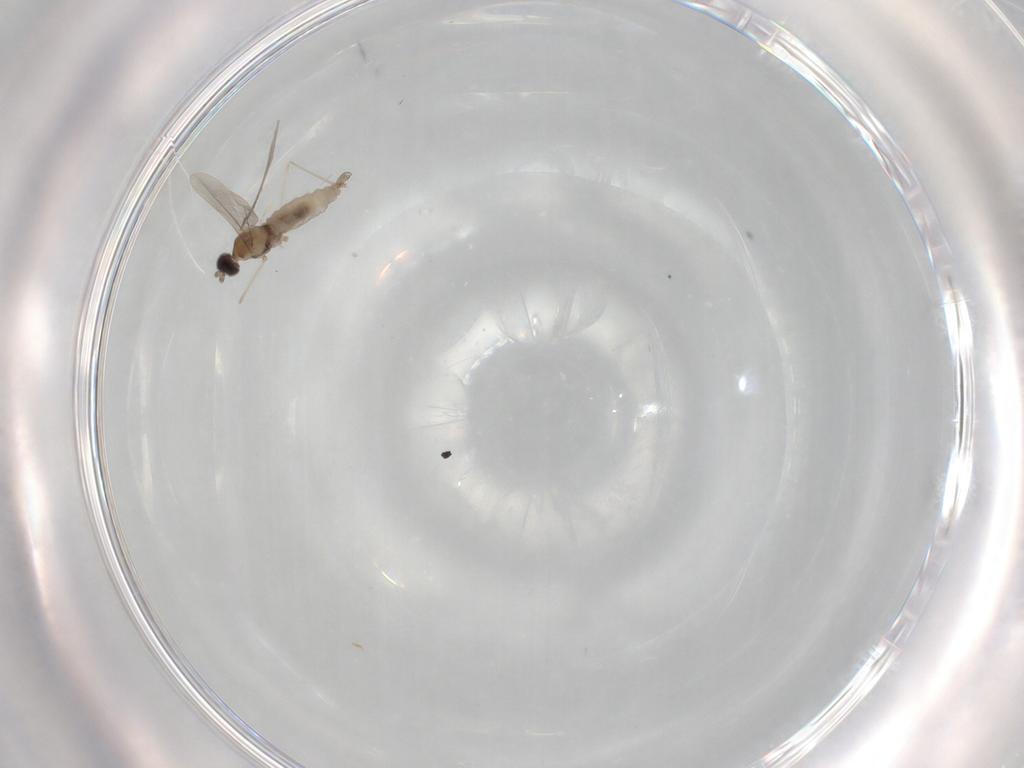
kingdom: Animalia
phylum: Arthropoda
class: Insecta
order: Diptera
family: Cecidomyiidae
